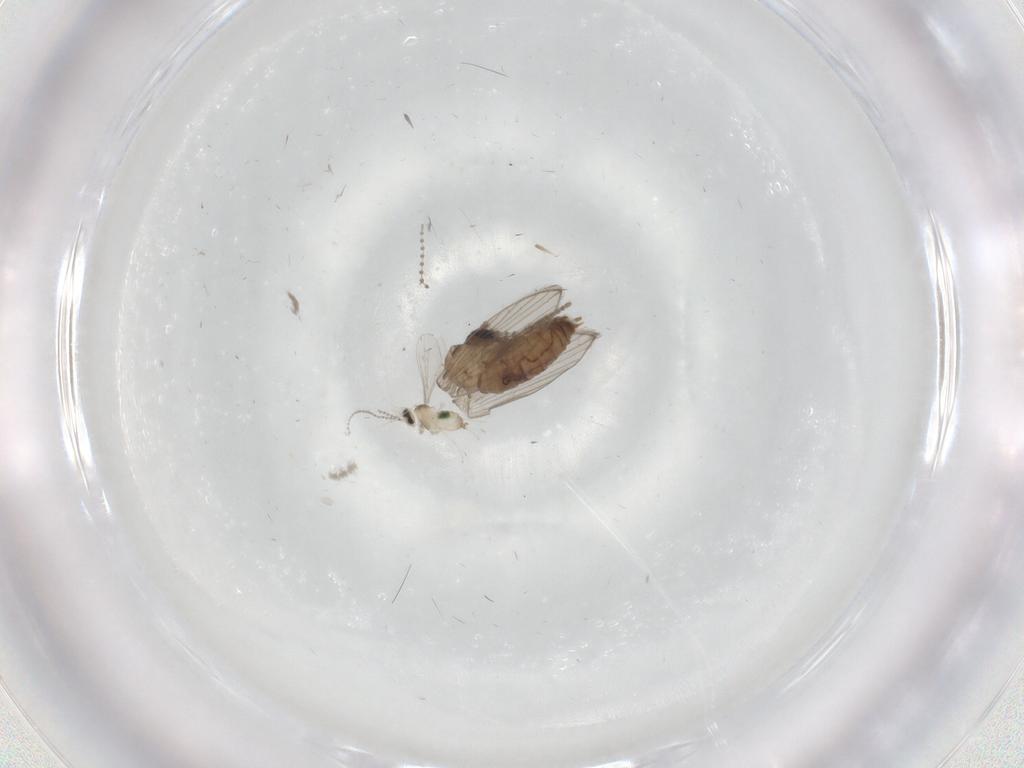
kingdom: Animalia
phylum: Arthropoda
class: Insecta
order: Diptera
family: Cecidomyiidae
